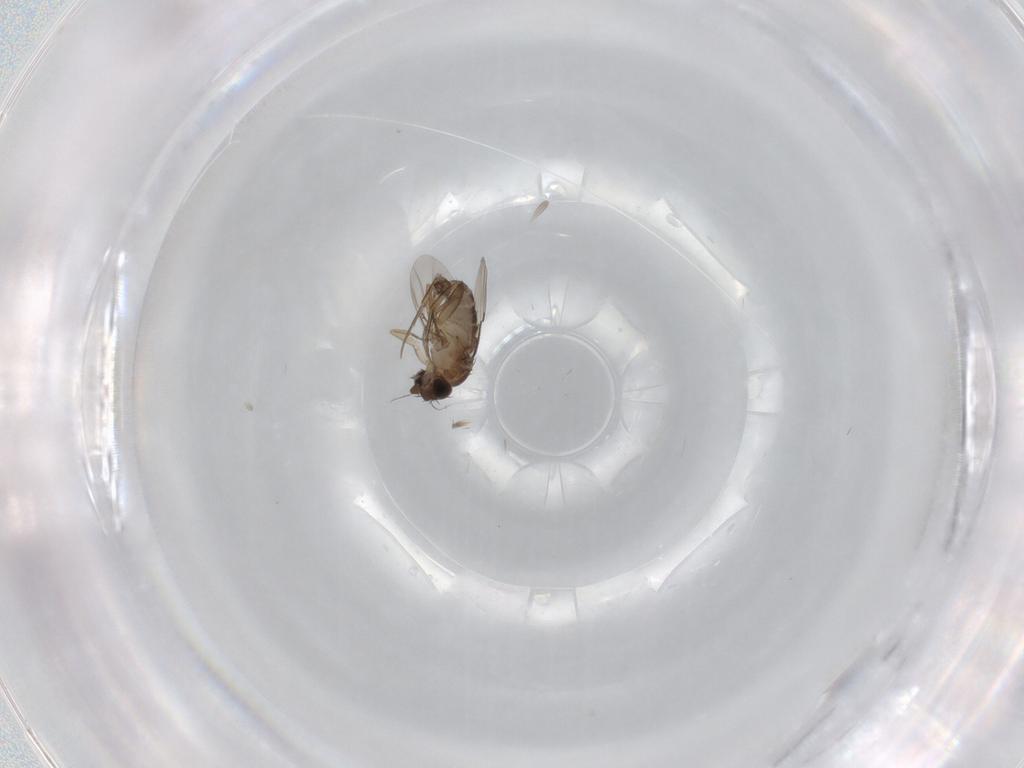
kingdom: Animalia
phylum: Arthropoda
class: Insecta
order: Diptera
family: Phoridae
